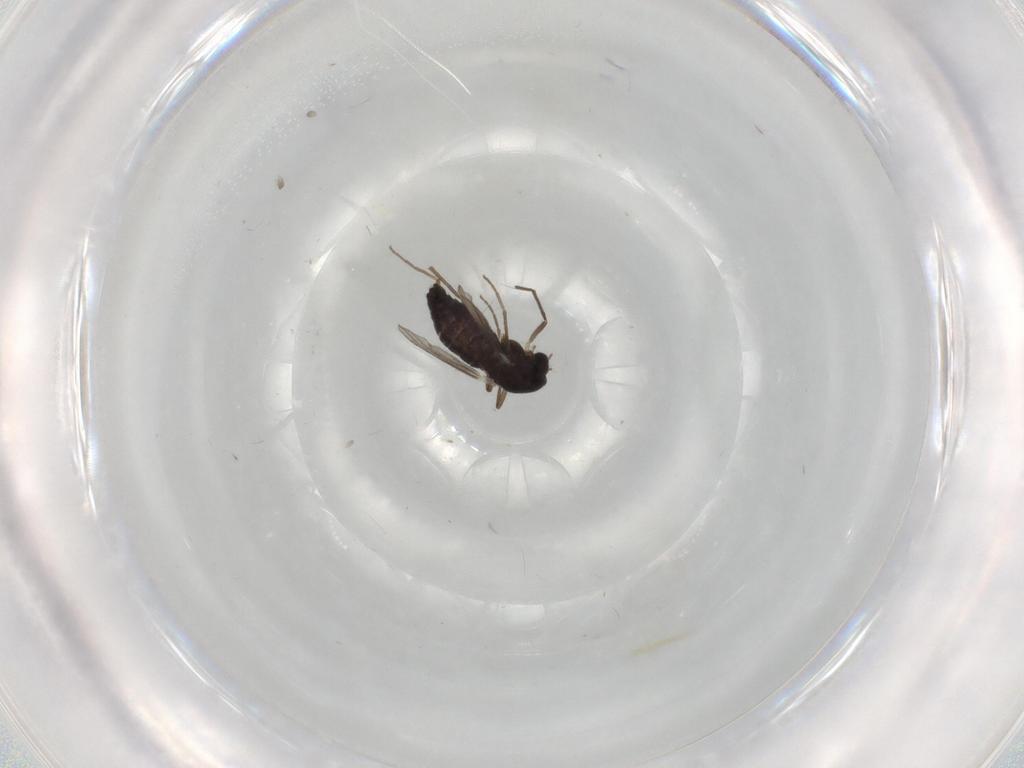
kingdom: Animalia
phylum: Arthropoda
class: Insecta
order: Diptera
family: Chironomidae
